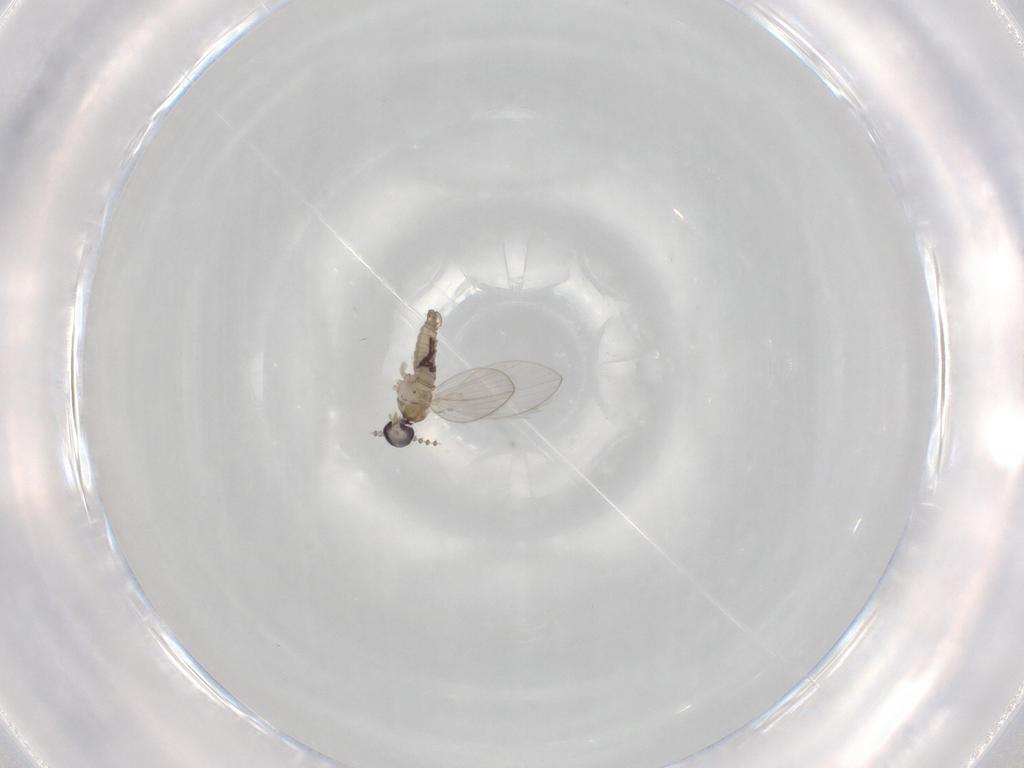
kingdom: Animalia
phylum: Arthropoda
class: Insecta
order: Diptera
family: Psychodidae
